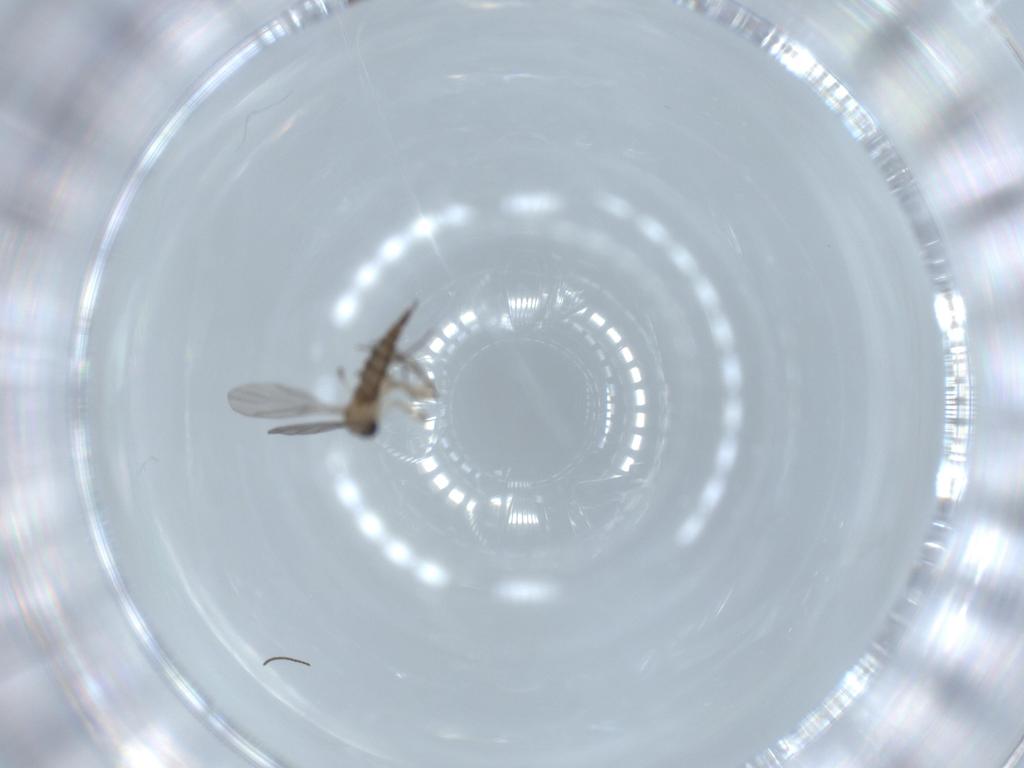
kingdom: Animalia
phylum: Arthropoda
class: Insecta
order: Diptera
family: Sciaridae
